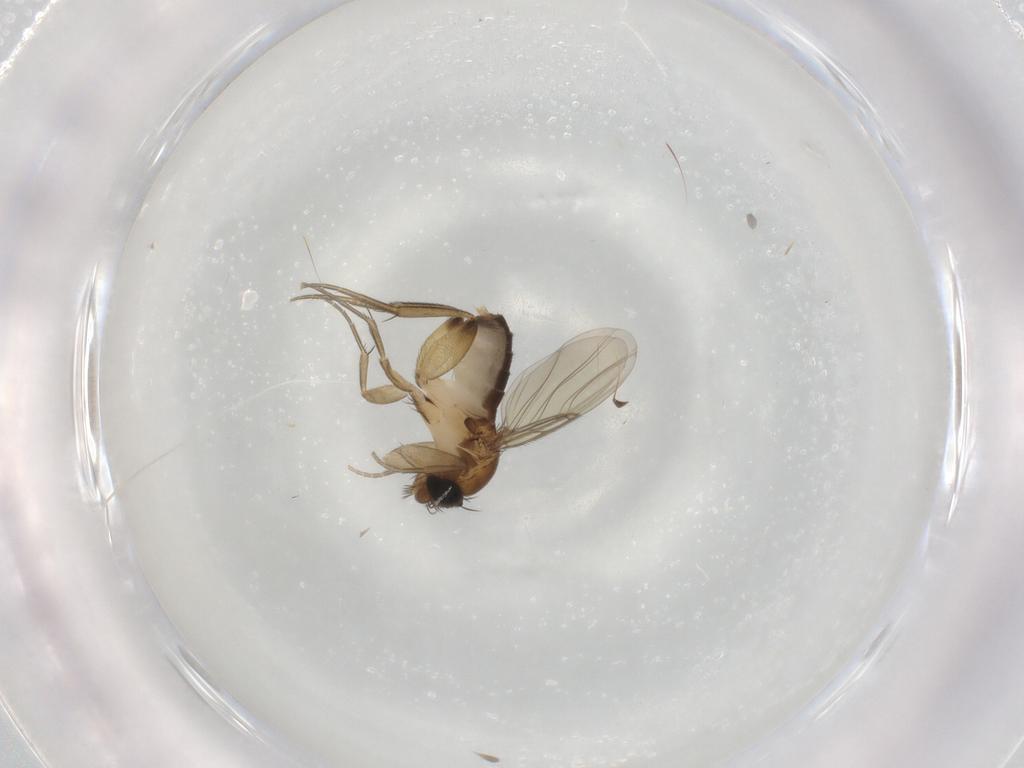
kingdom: Animalia
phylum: Arthropoda
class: Insecta
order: Diptera
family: Phoridae
